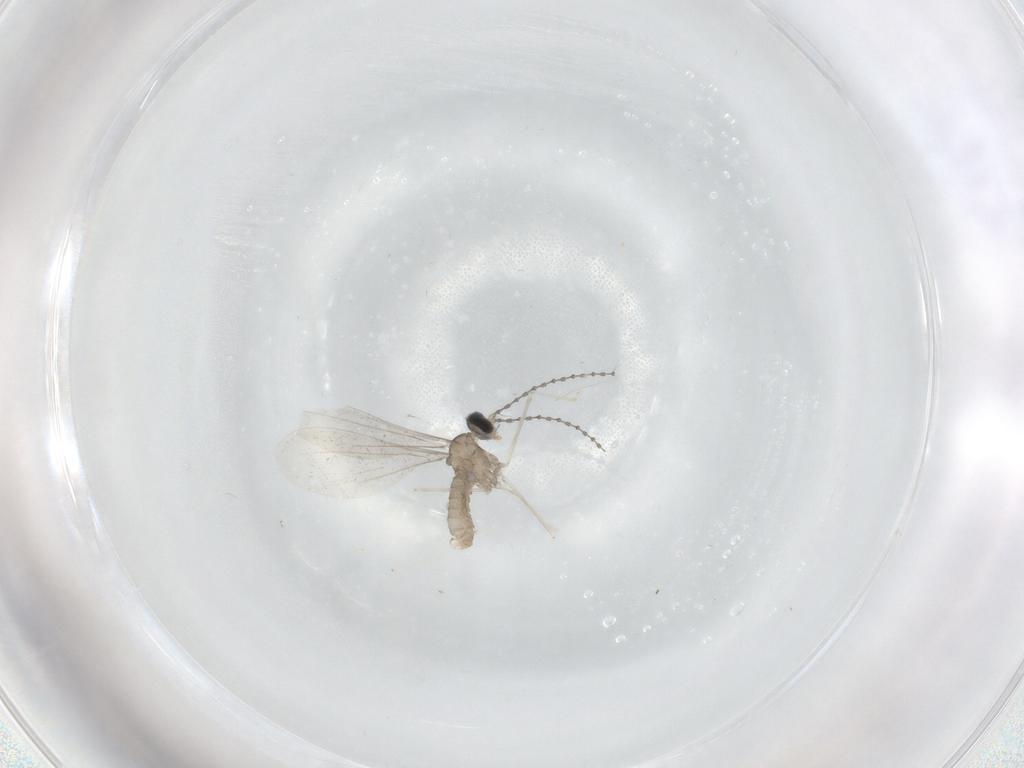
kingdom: Animalia
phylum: Arthropoda
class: Insecta
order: Diptera
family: Cecidomyiidae
